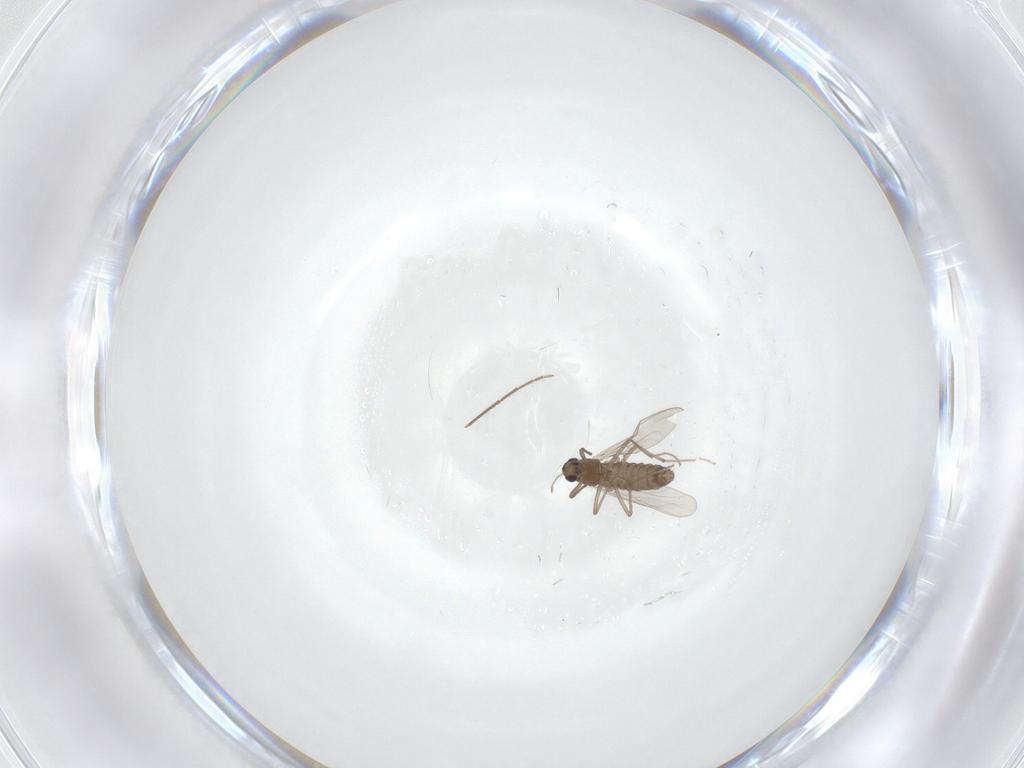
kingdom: Animalia
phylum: Arthropoda
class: Insecta
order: Diptera
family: Chironomidae
